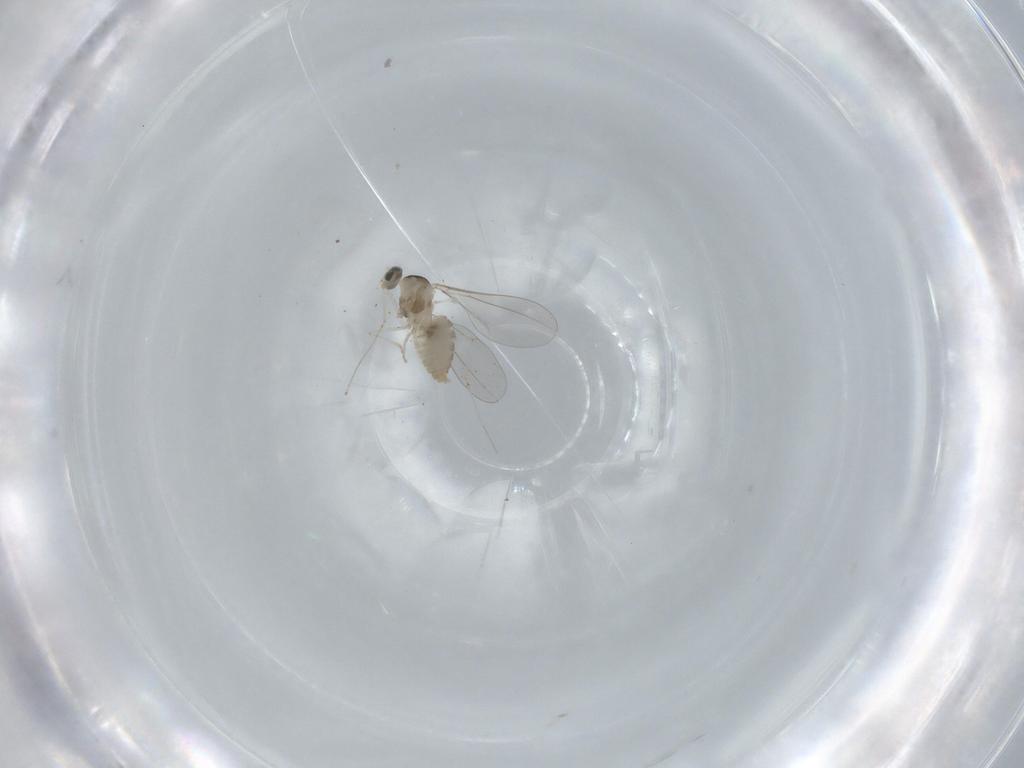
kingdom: Animalia
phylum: Arthropoda
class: Insecta
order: Diptera
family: Cecidomyiidae
